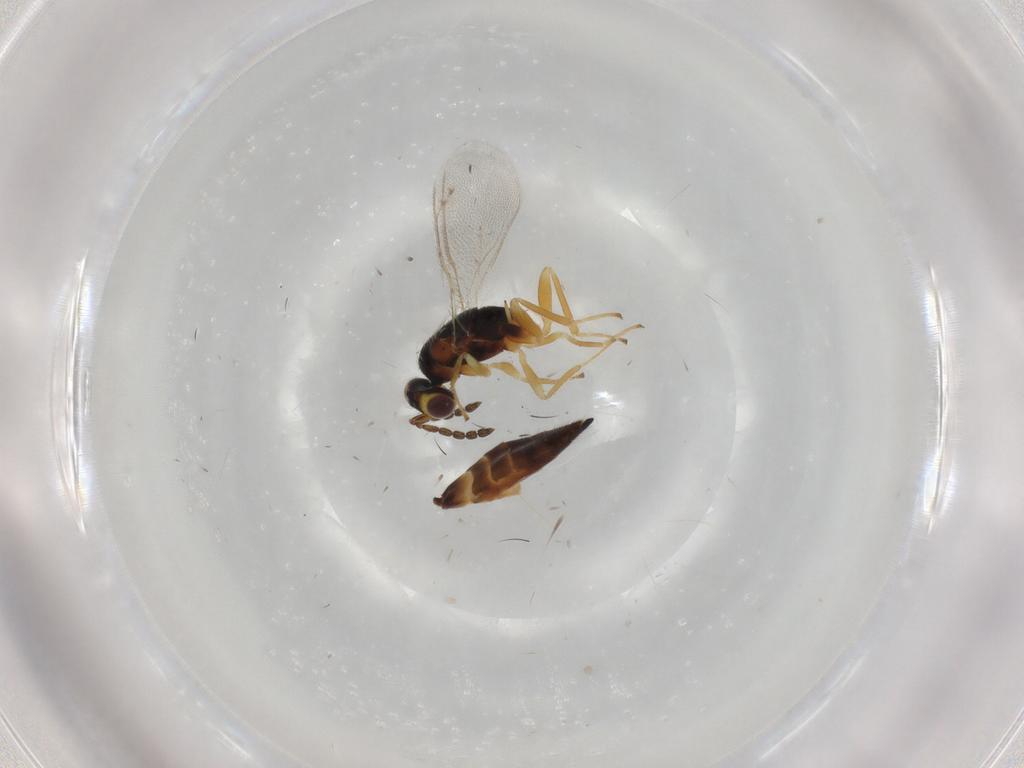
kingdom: Animalia
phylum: Arthropoda
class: Insecta
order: Hymenoptera
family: Eulophidae
